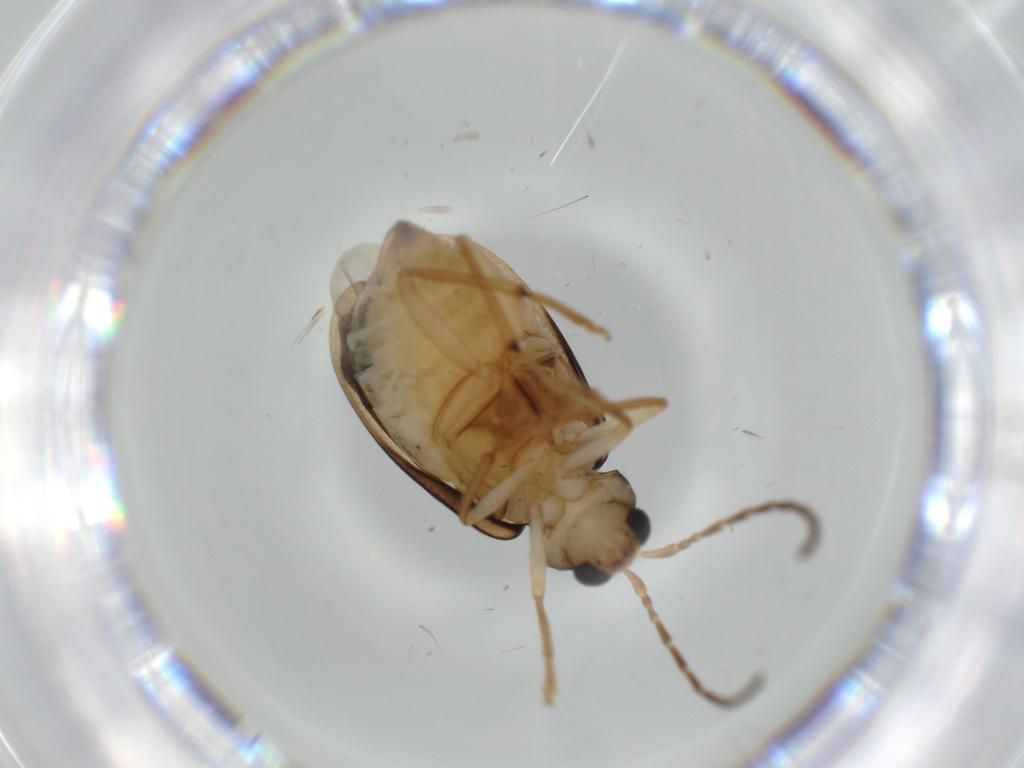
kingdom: Animalia
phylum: Arthropoda
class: Insecta
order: Coleoptera
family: Chrysomelidae
